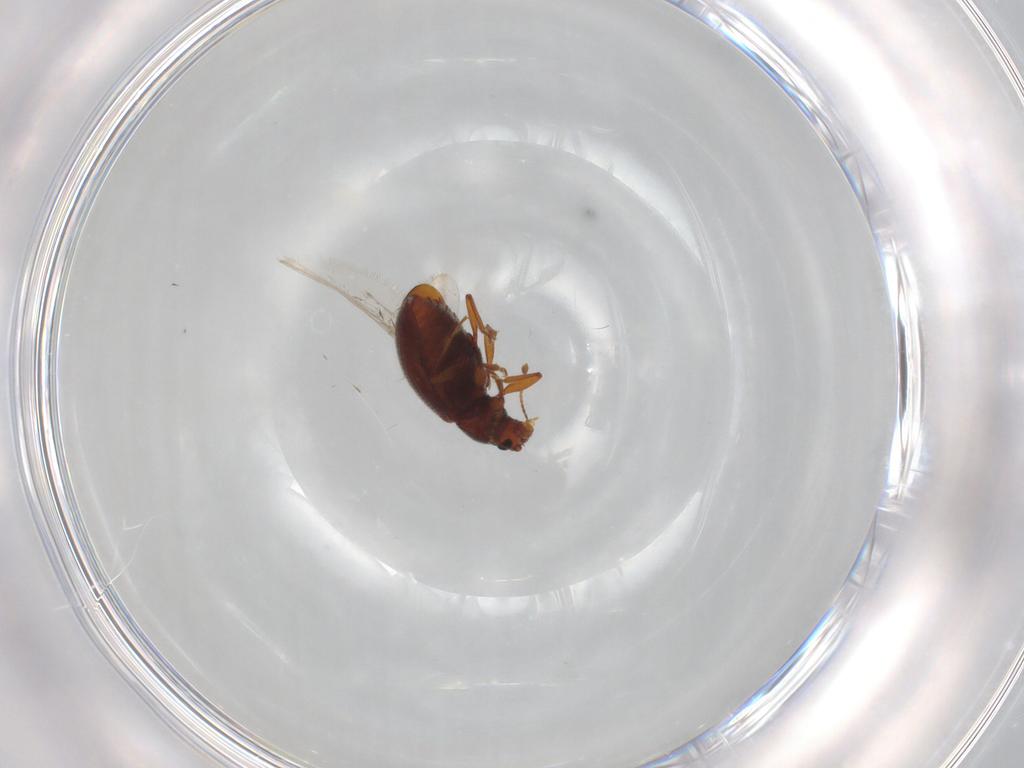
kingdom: Animalia
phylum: Arthropoda
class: Insecta
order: Coleoptera
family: Latridiidae
